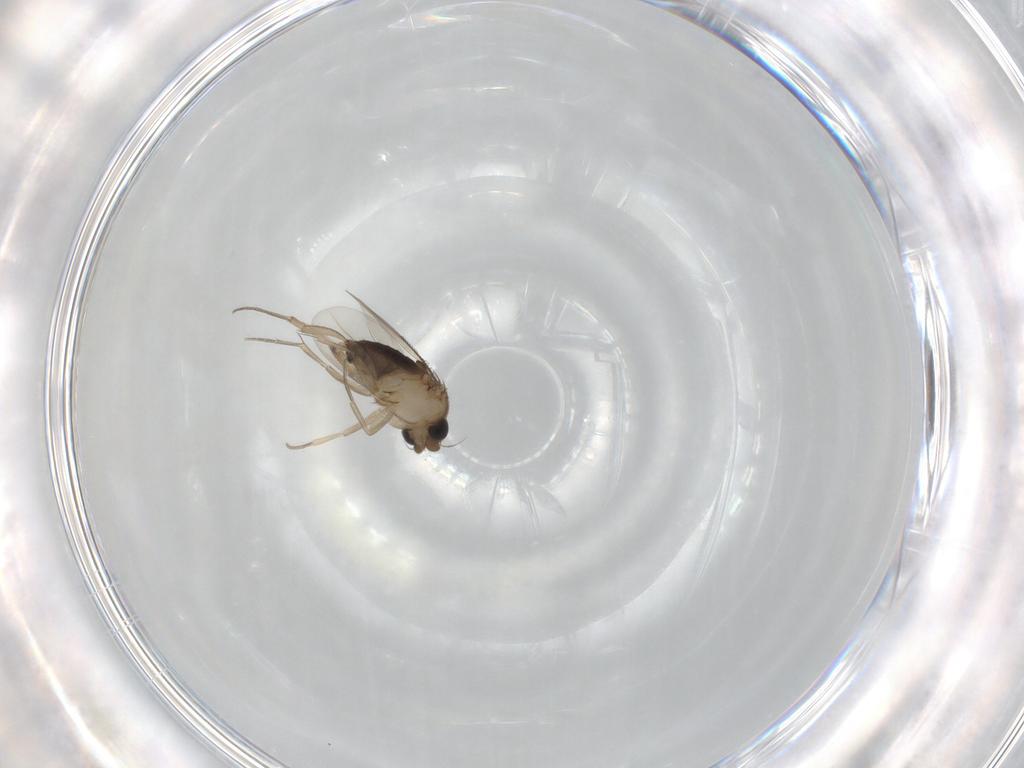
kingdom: Animalia
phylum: Arthropoda
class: Insecta
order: Diptera
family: Phoridae
